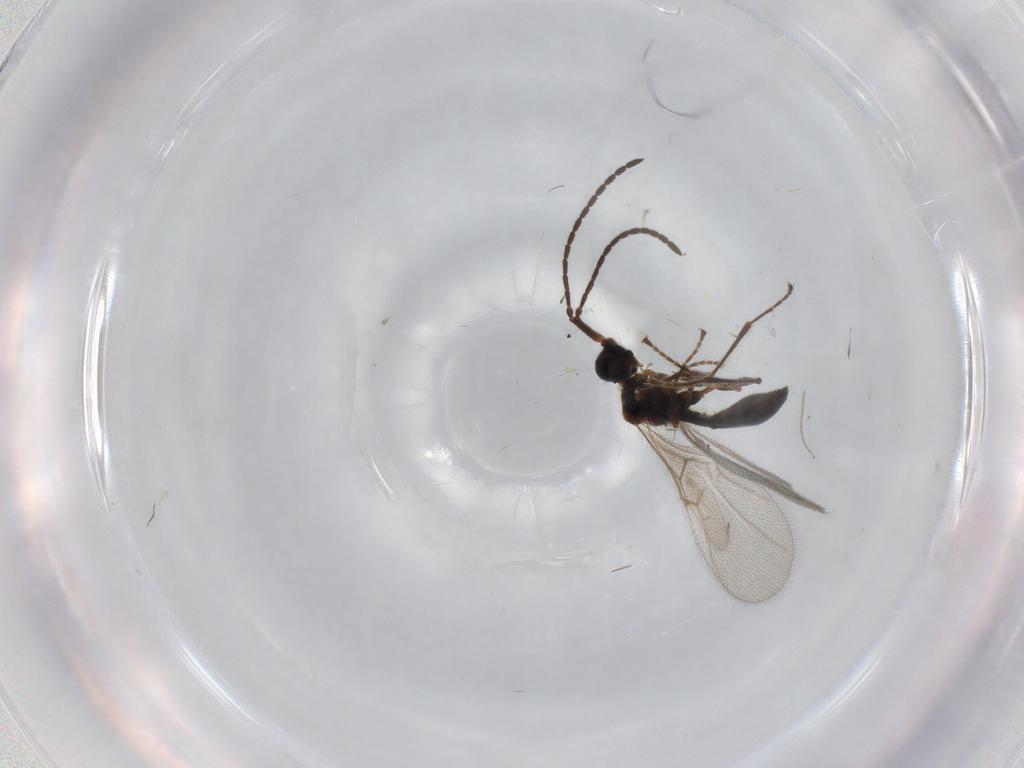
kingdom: Animalia
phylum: Arthropoda
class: Insecta
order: Hymenoptera
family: Diapriidae
